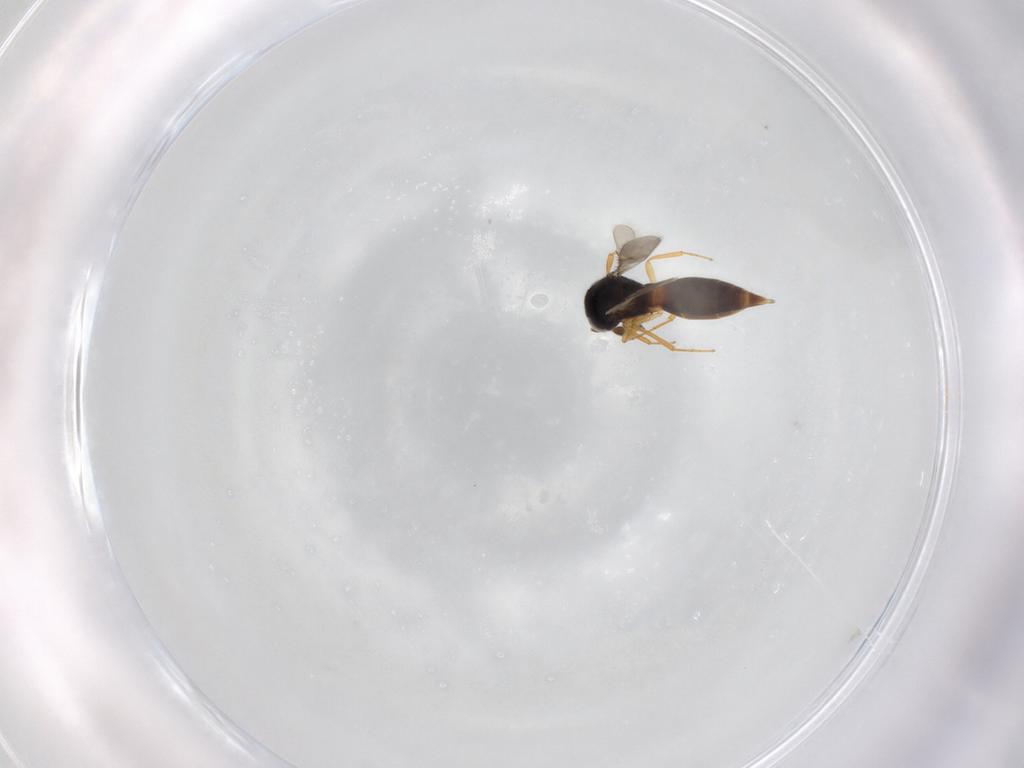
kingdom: Animalia
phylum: Arthropoda
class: Insecta
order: Hymenoptera
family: Scelionidae
